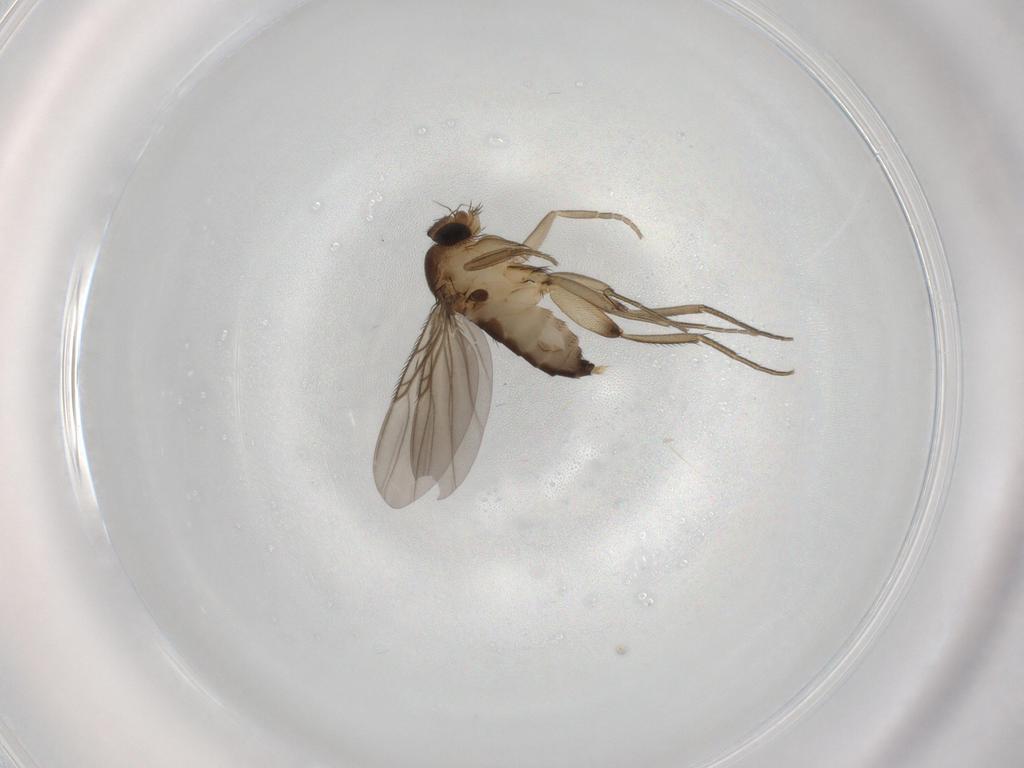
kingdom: Animalia
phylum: Arthropoda
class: Insecta
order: Diptera
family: Phoridae
